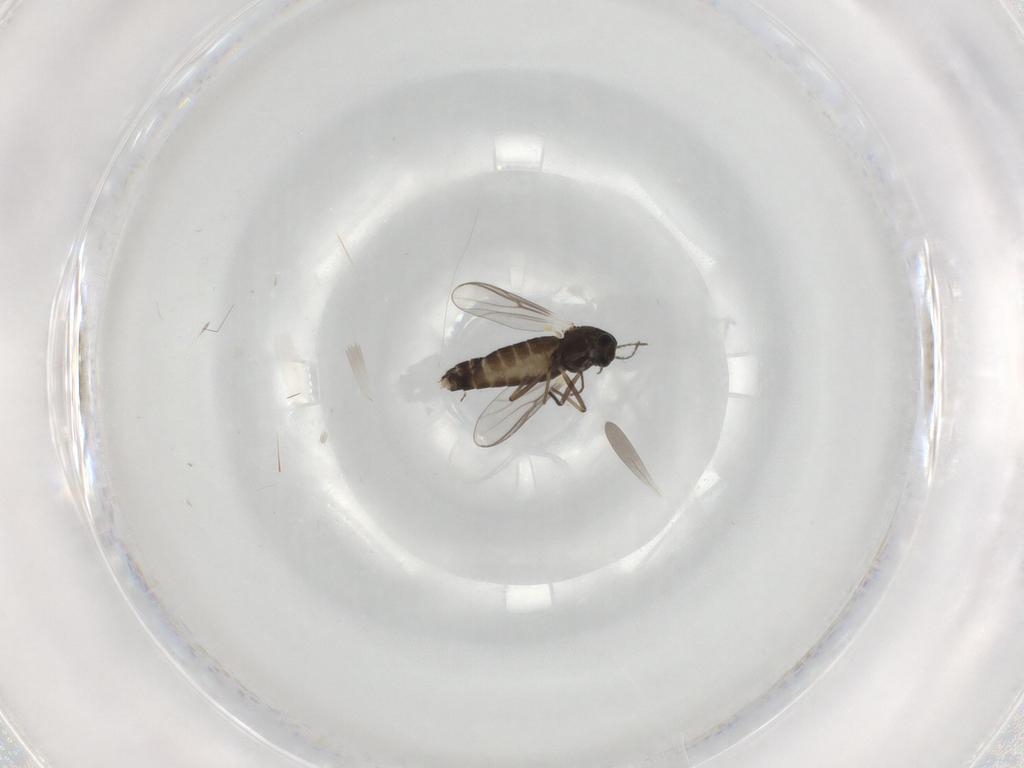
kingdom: Animalia
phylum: Arthropoda
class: Insecta
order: Diptera
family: Chironomidae
